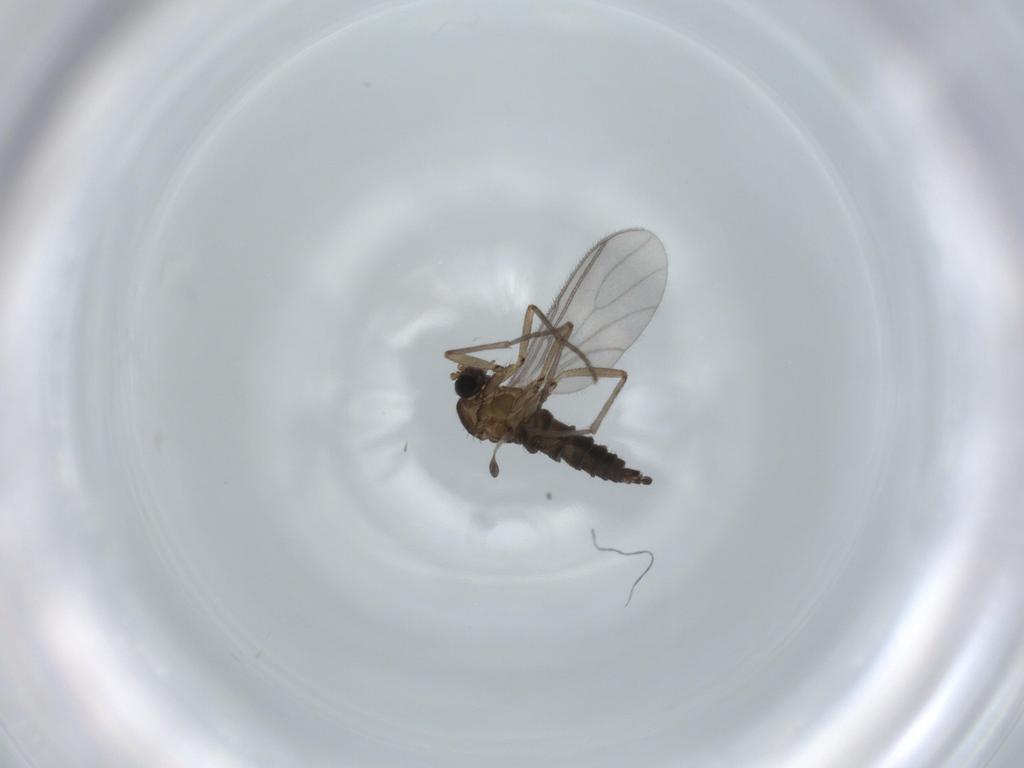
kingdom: Animalia
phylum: Arthropoda
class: Insecta
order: Diptera
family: Sciaridae
